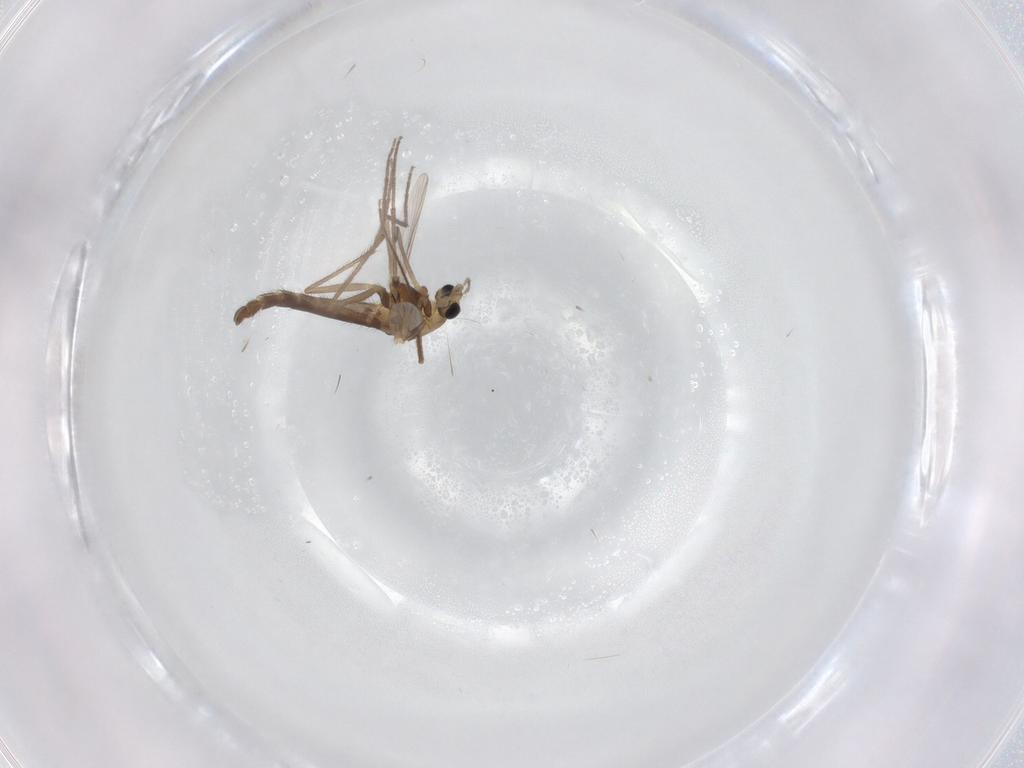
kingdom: Animalia
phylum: Arthropoda
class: Insecta
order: Diptera
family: Chironomidae
